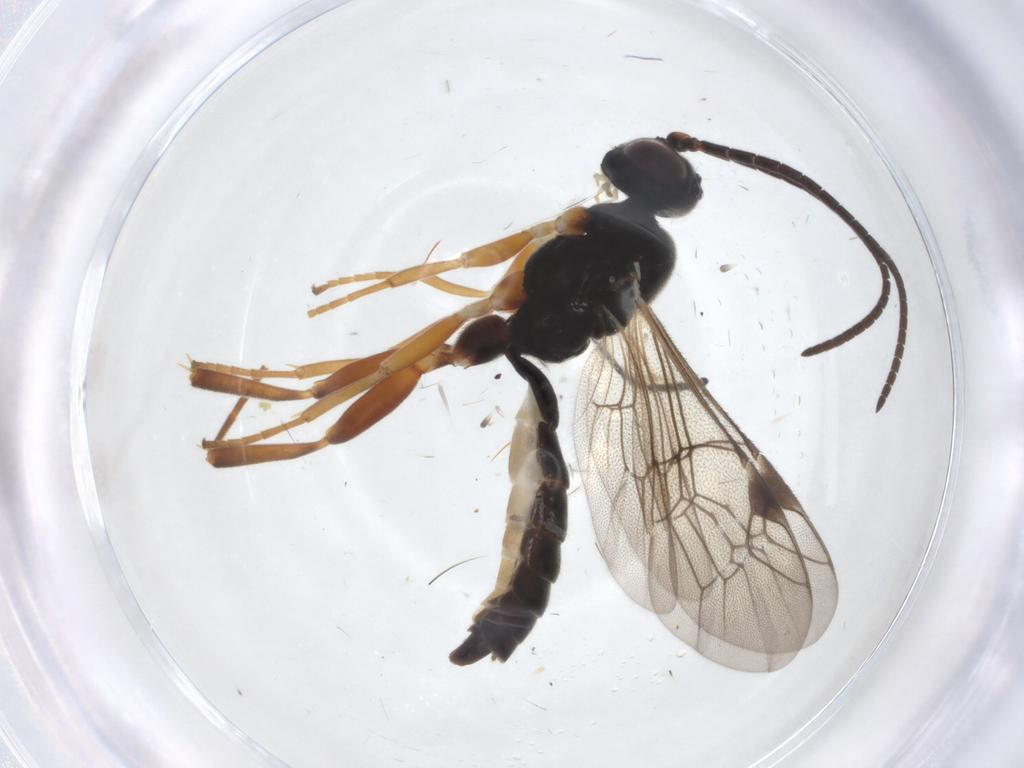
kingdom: Animalia
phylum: Arthropoda
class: Insecta
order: Hymenoptera
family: Ichneumonidae
